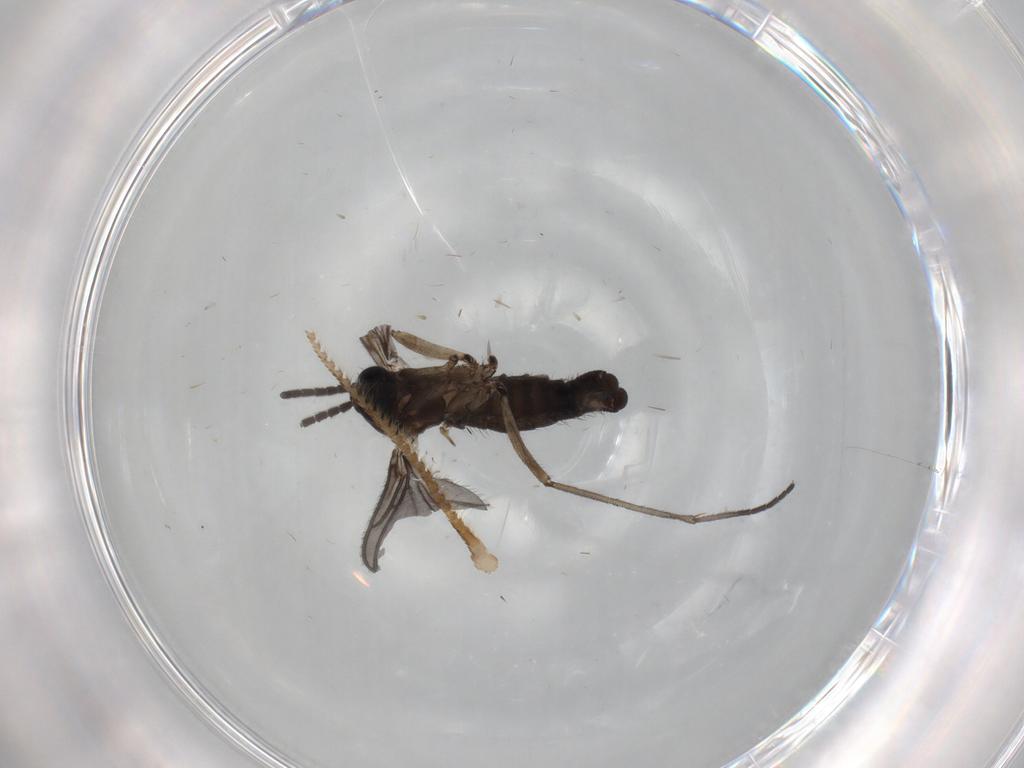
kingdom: Animalia
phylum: Arthropoda
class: Insecta
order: Diptera
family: Sciaridae
